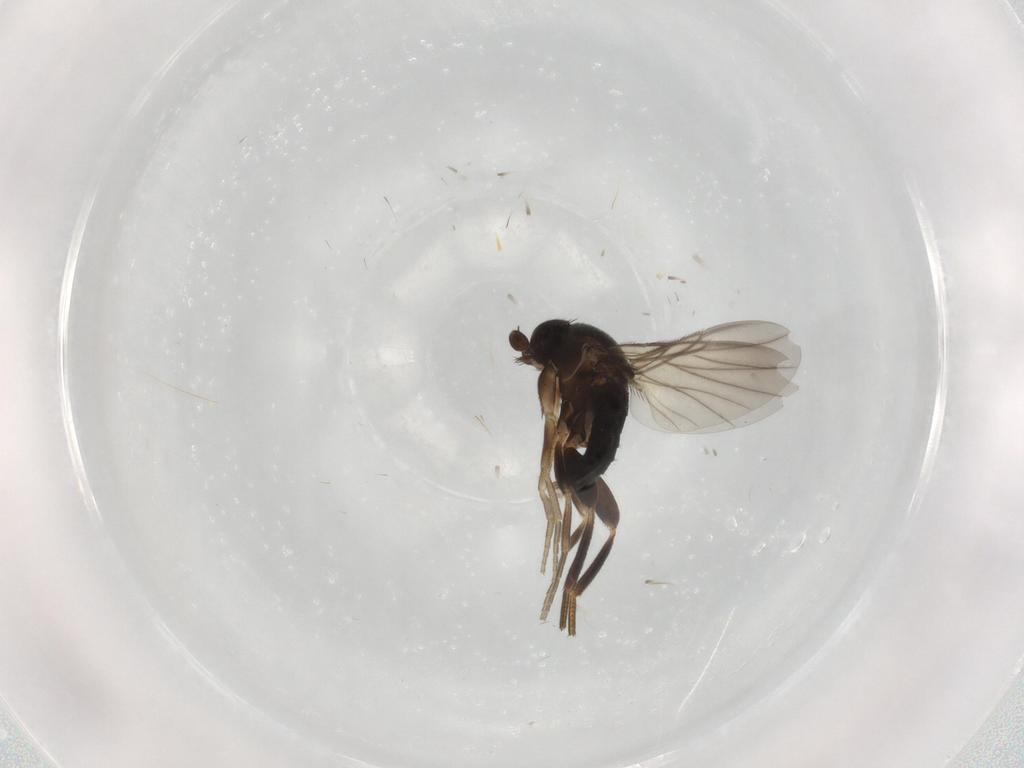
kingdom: Animalia
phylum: Arthropoda
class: Insecta
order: Diptera
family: Phoridae
